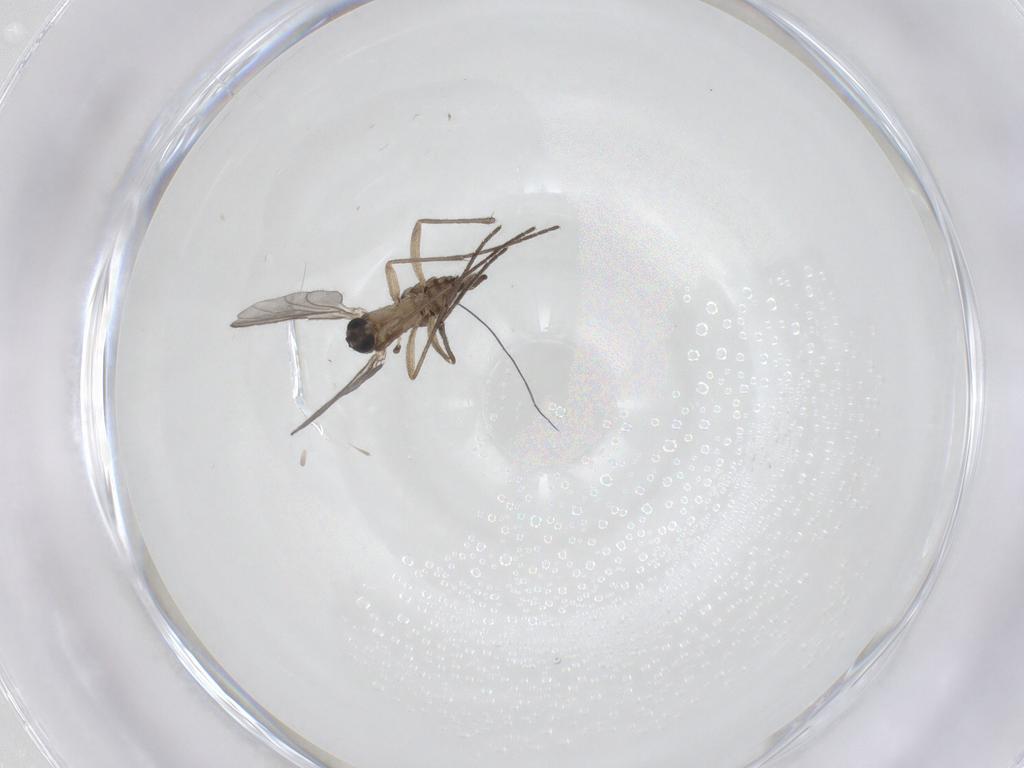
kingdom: Animalia
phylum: Arthropoda
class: Insecta
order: Diptera
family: Sciaridae
